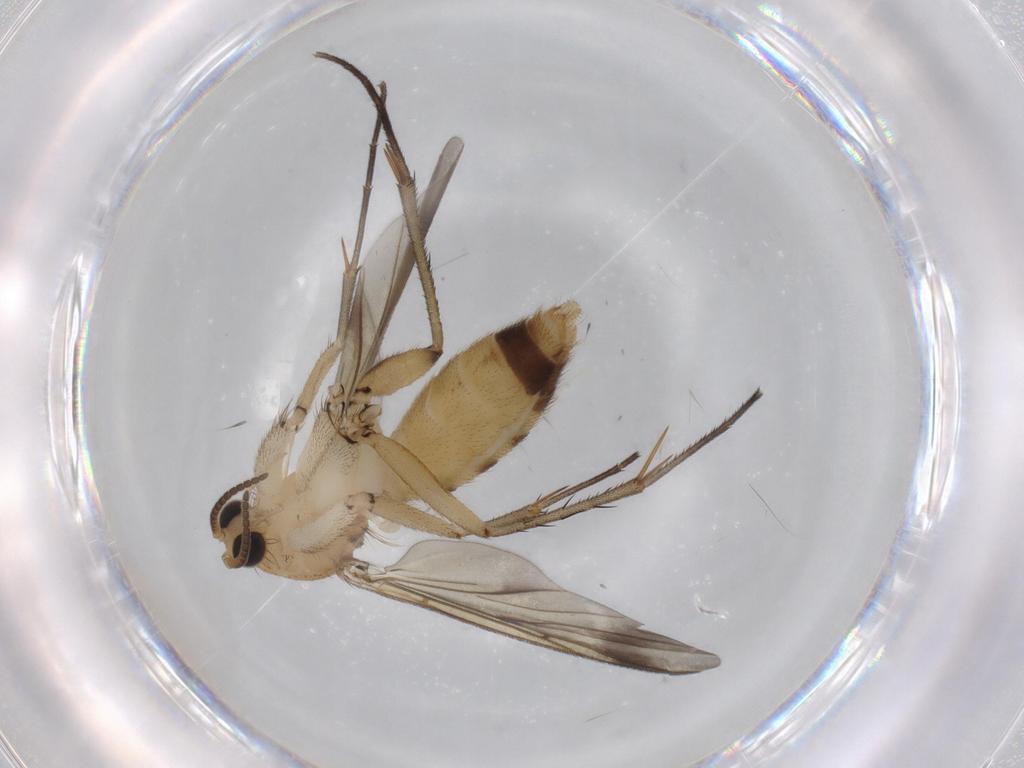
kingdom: Animalia
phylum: Arthropoda
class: Insecta
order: Diptera
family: Mycetophilidae
